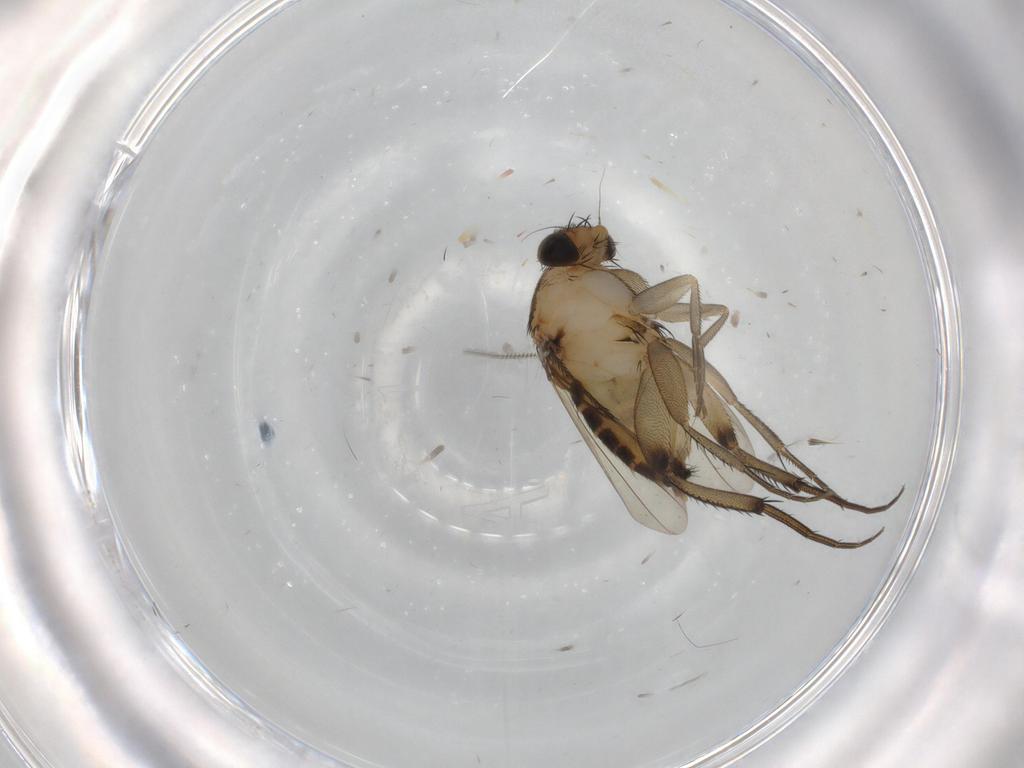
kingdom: Animalia
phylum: Arthropoda
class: Insecta
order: Diptera
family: Phoridae
